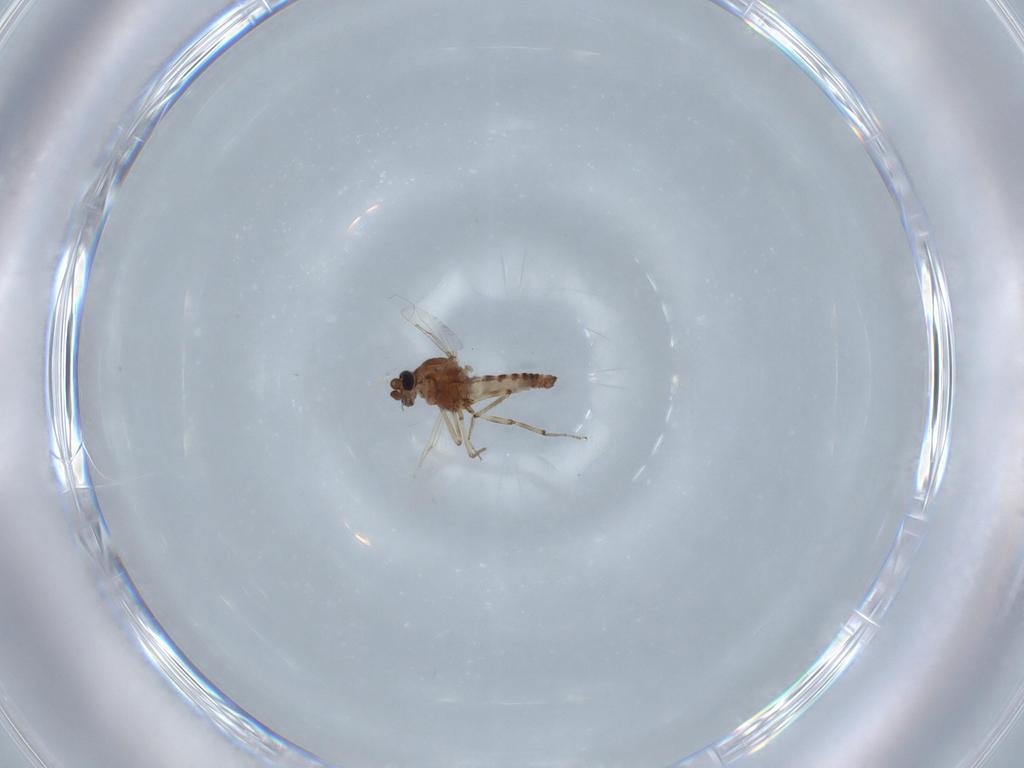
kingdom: Animalia
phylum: Arthropoda
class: Insecta
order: Diptera
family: Ceratopogonidae
